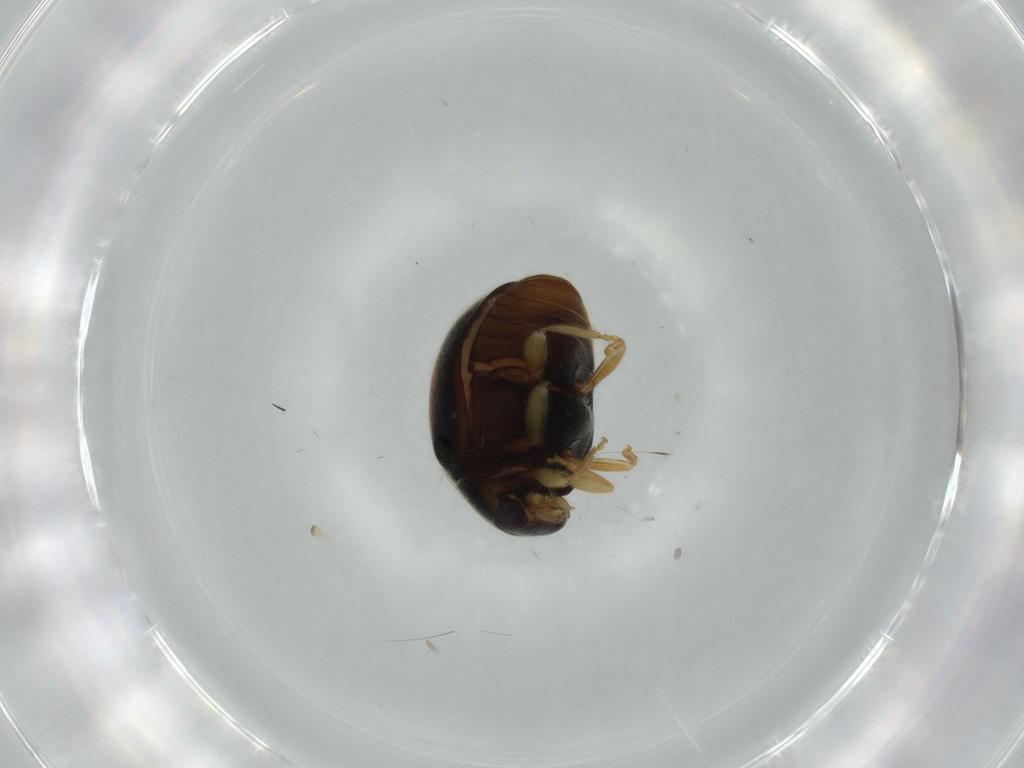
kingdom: Animalia
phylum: Arthropoda
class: Insecta
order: Coleoptera
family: Coccinellidae
